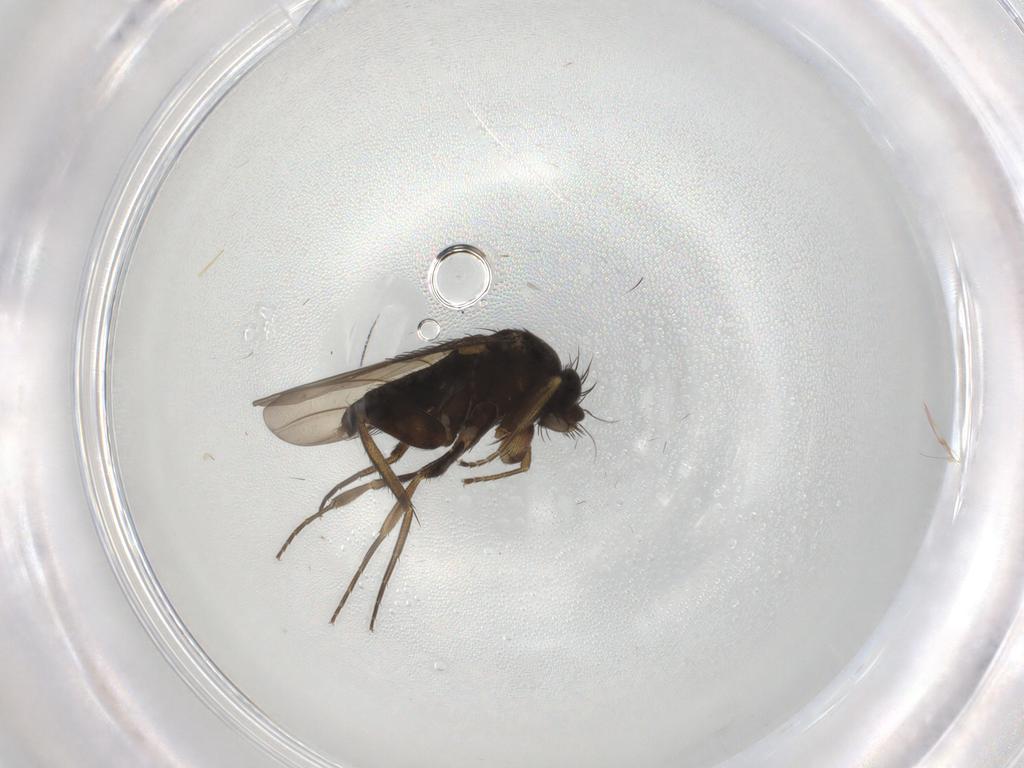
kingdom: Animalia
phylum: Arthropoda
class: Insecta
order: Diptera
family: Phoridae
